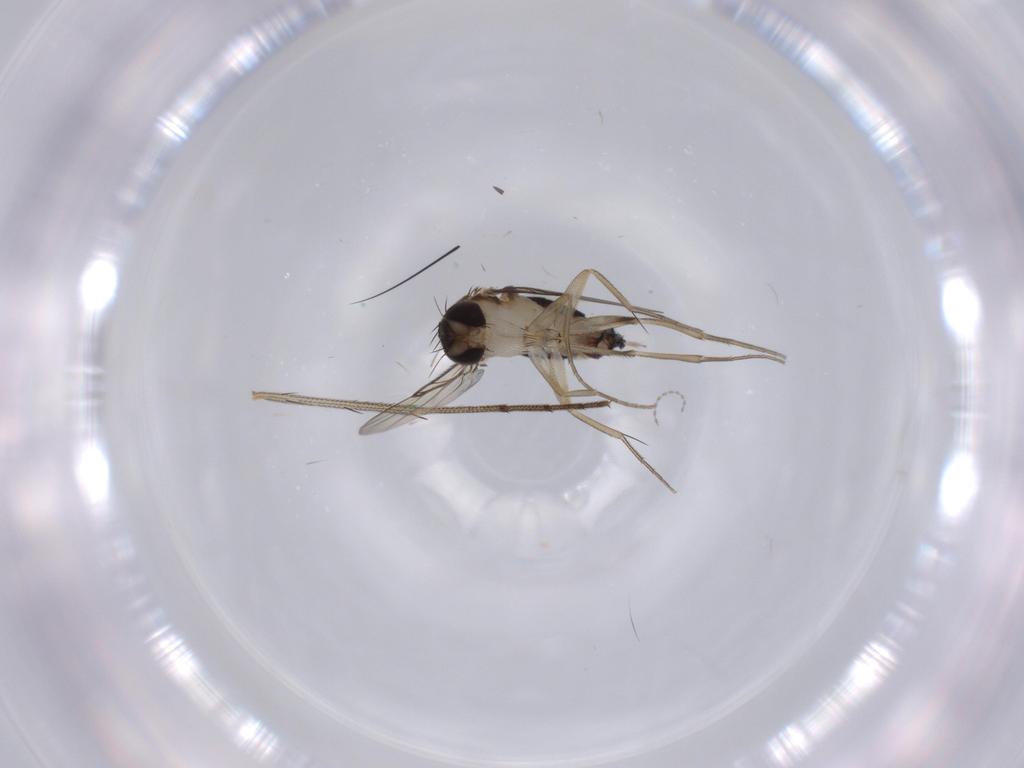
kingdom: Animalia
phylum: Arthropoda
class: Insecta
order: Diptera
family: Phoridae
